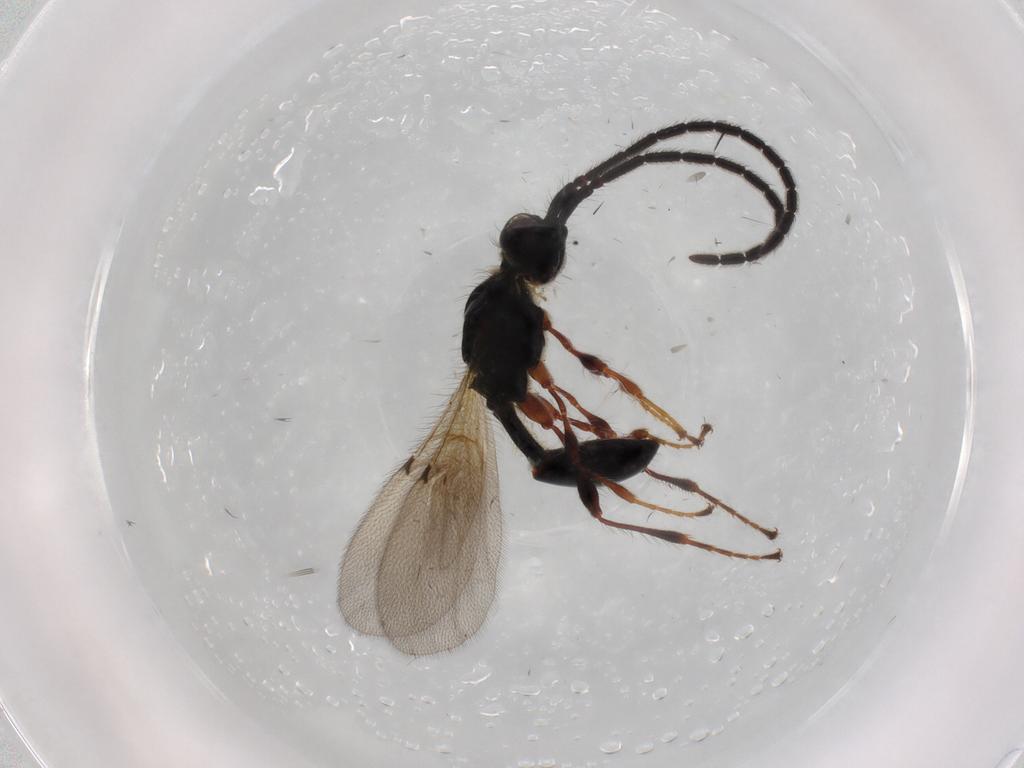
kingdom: Animalia
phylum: Arthropoda
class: Insecta
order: Hymenoptera
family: Diapriidae
